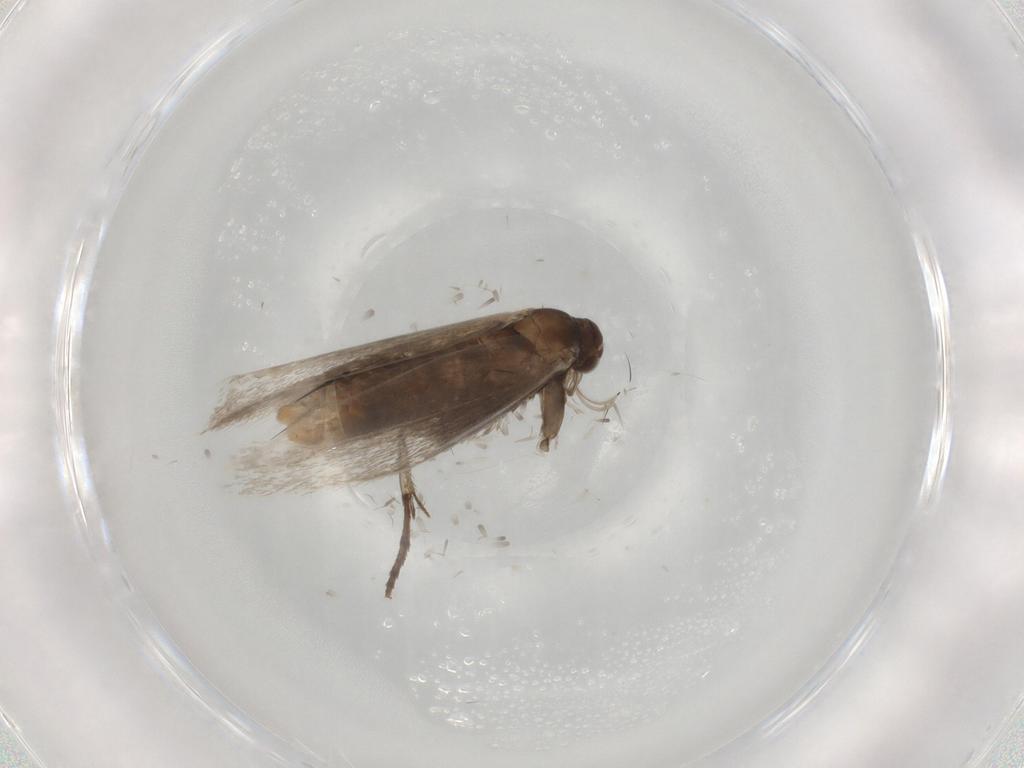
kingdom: Animalia
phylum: Arthropoda
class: Insecta
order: Lepidoptera
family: Gracillariidae
